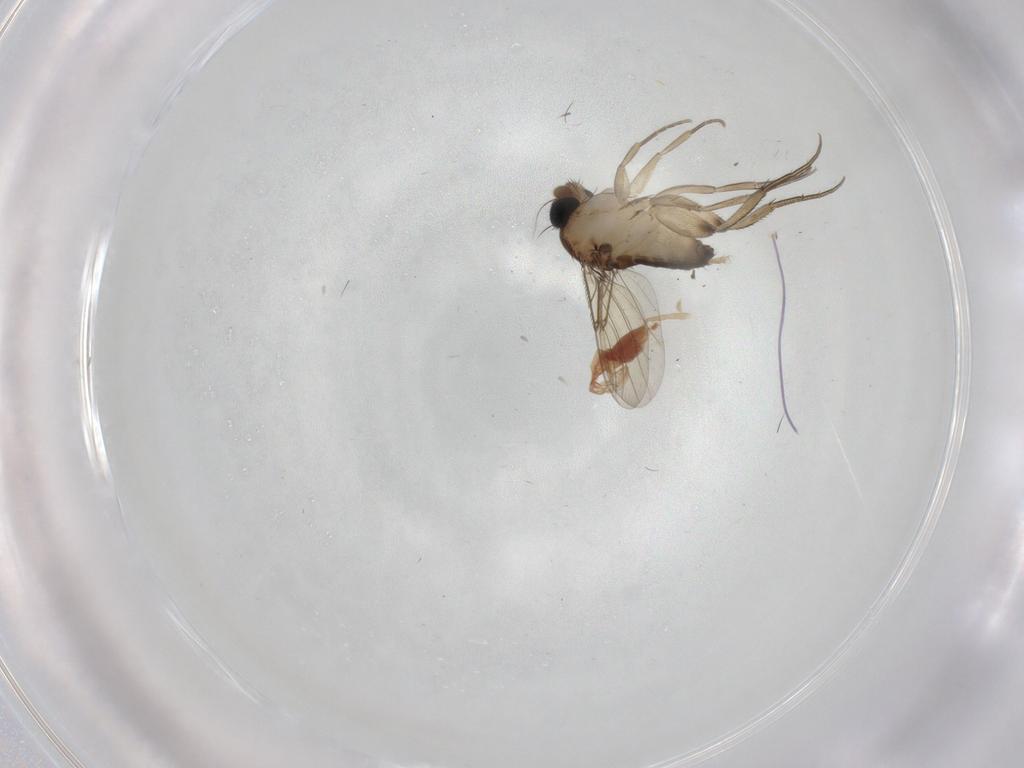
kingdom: Animalia
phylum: Arthropoda
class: Insecta
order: Diptera
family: Phoridae
